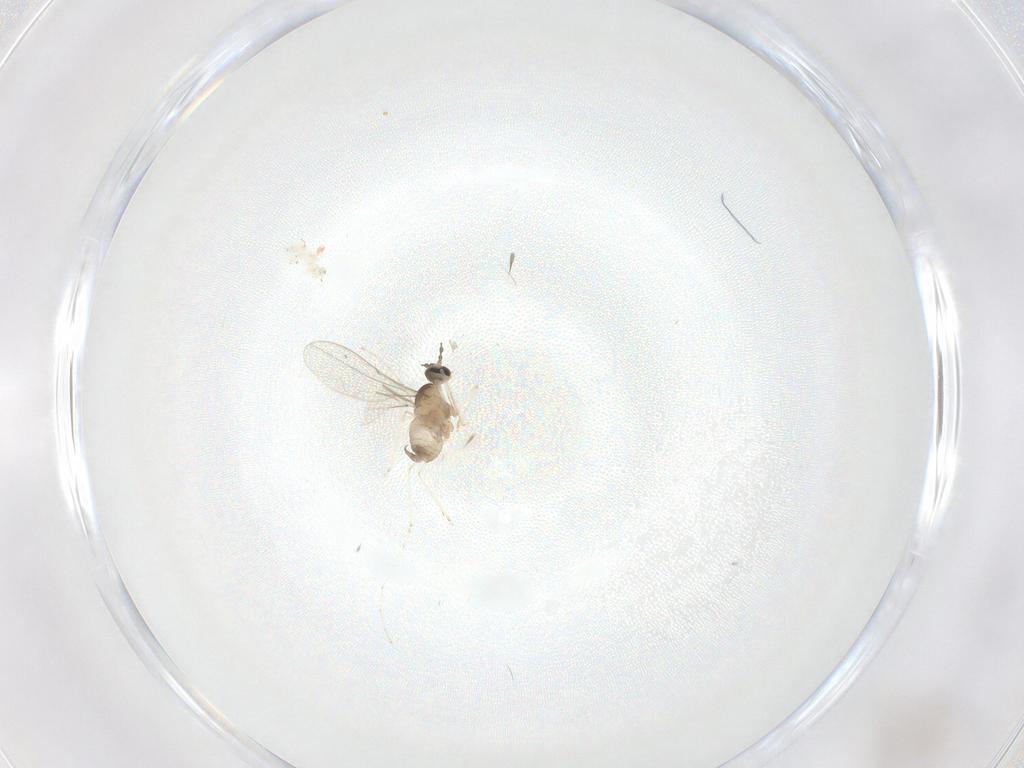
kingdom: Animalia
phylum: Arthropoda
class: Insecta
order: Diptera
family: Cecidomyiidae
